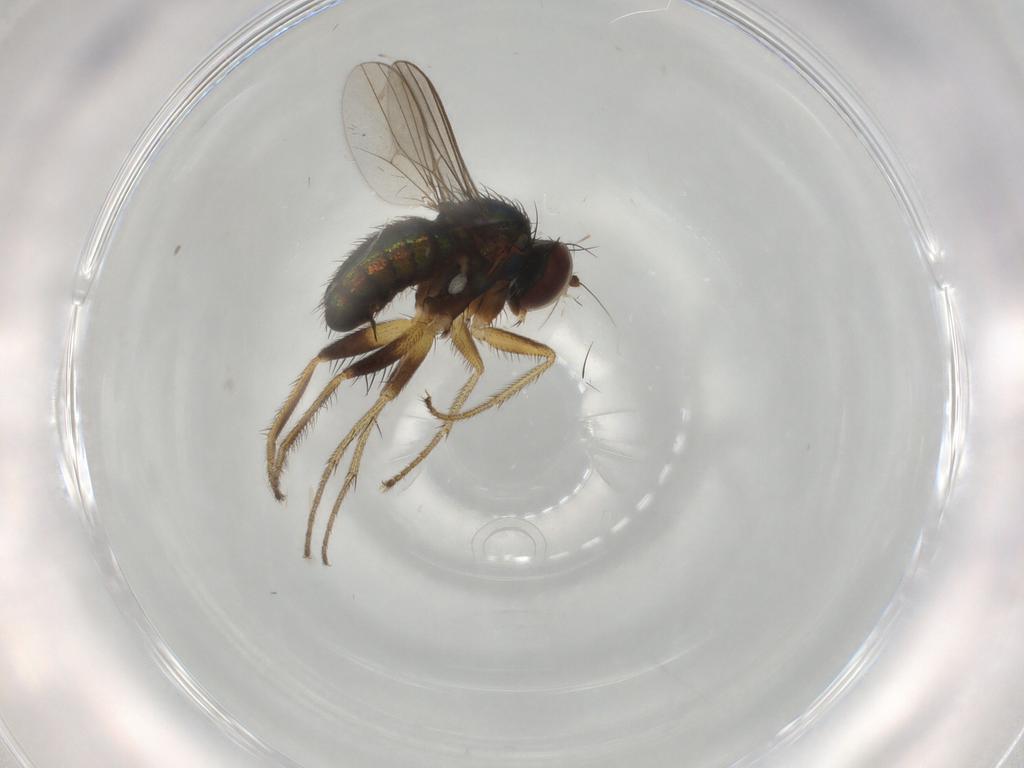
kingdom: Animalia
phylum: Arthropoda
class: Insecta
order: Diptera
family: Dolichopodidae
